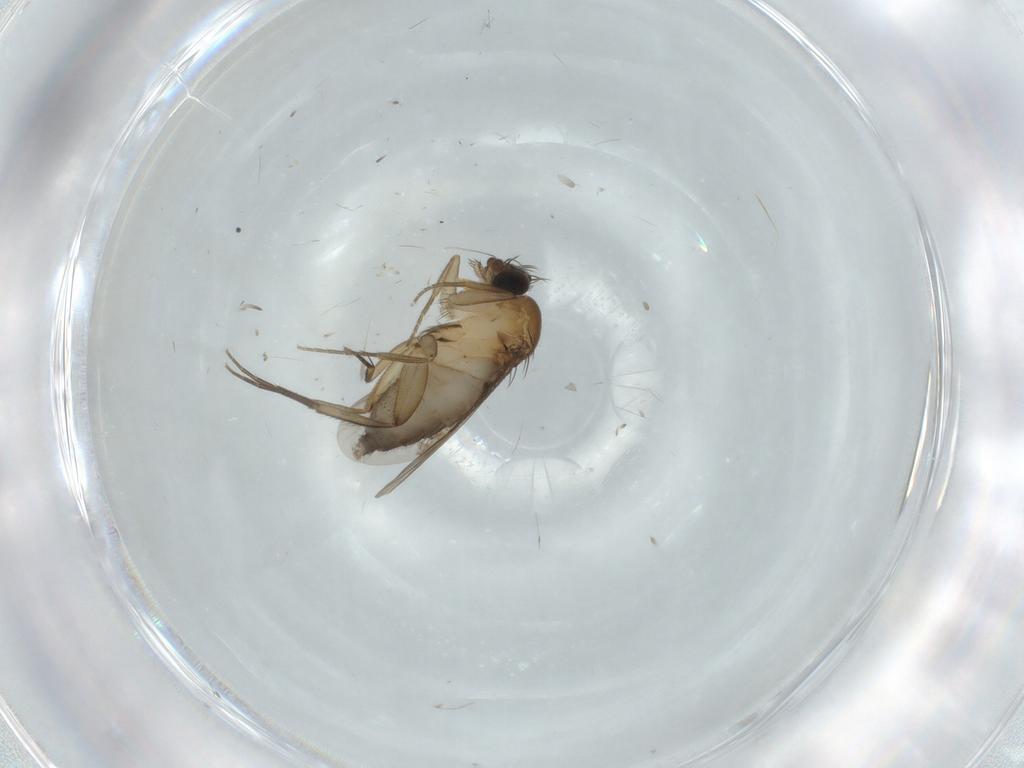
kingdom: Animalia
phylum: Arthropoda
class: Insecta
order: Diptera
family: Phoridae
